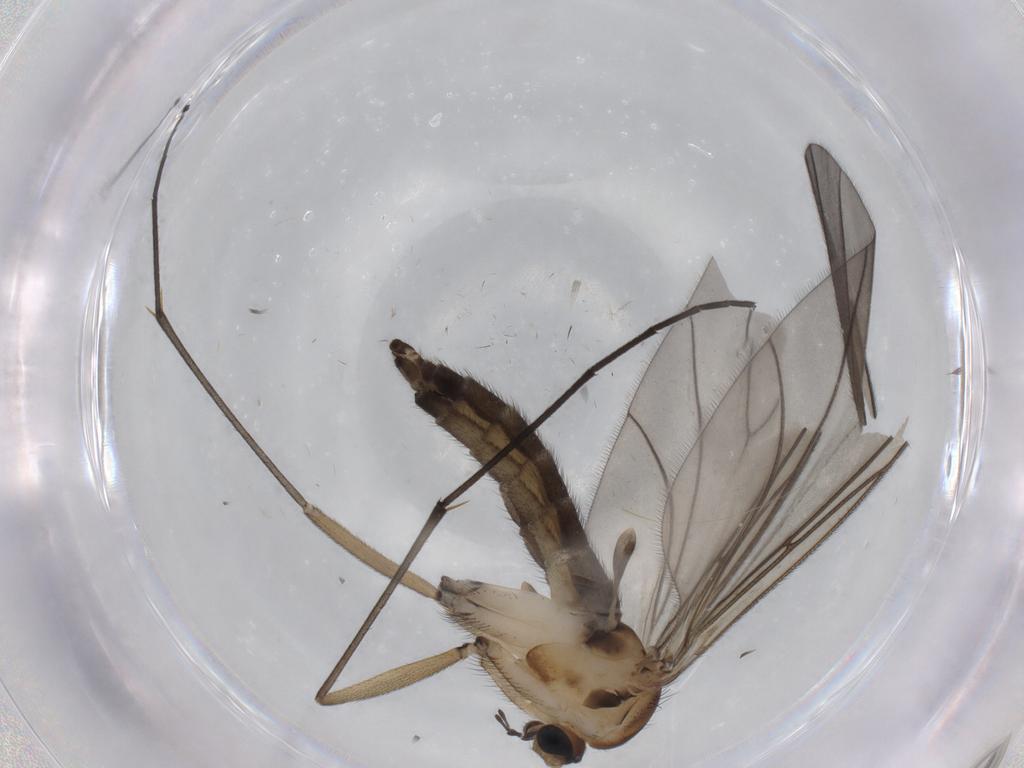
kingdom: Animalia
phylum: Arthropoda
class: Insecta
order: Diptera
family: Sciaridae
